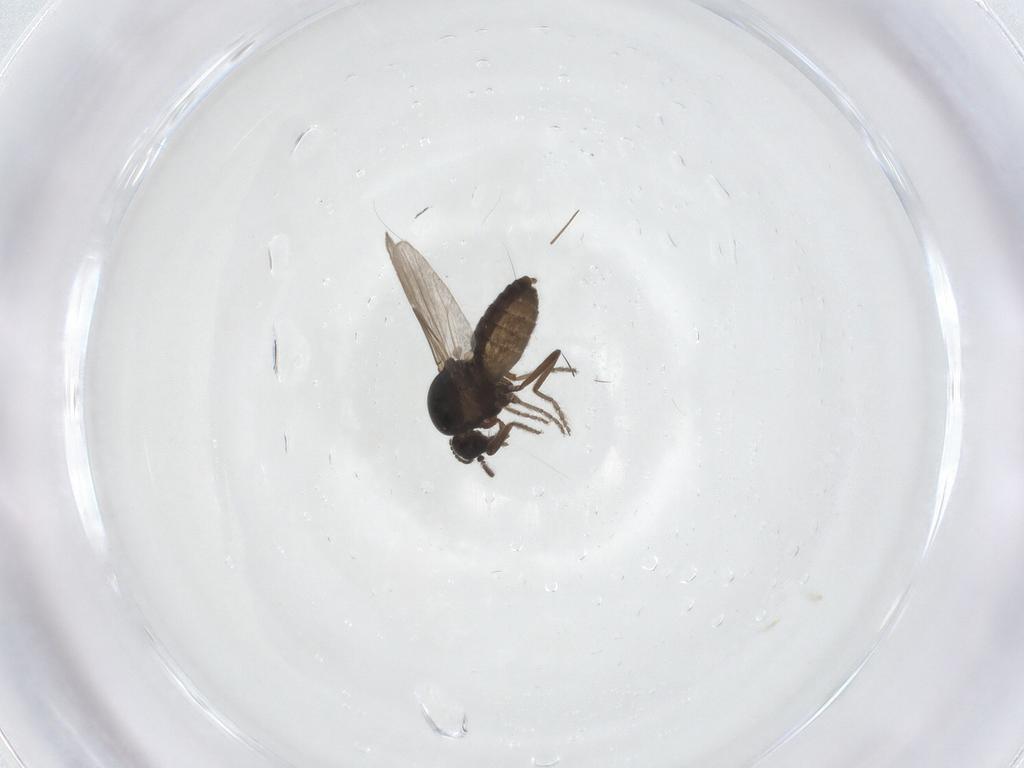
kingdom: Animalia
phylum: Arthropoda
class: Insecta
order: Diptera
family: Ceratopogonidae
